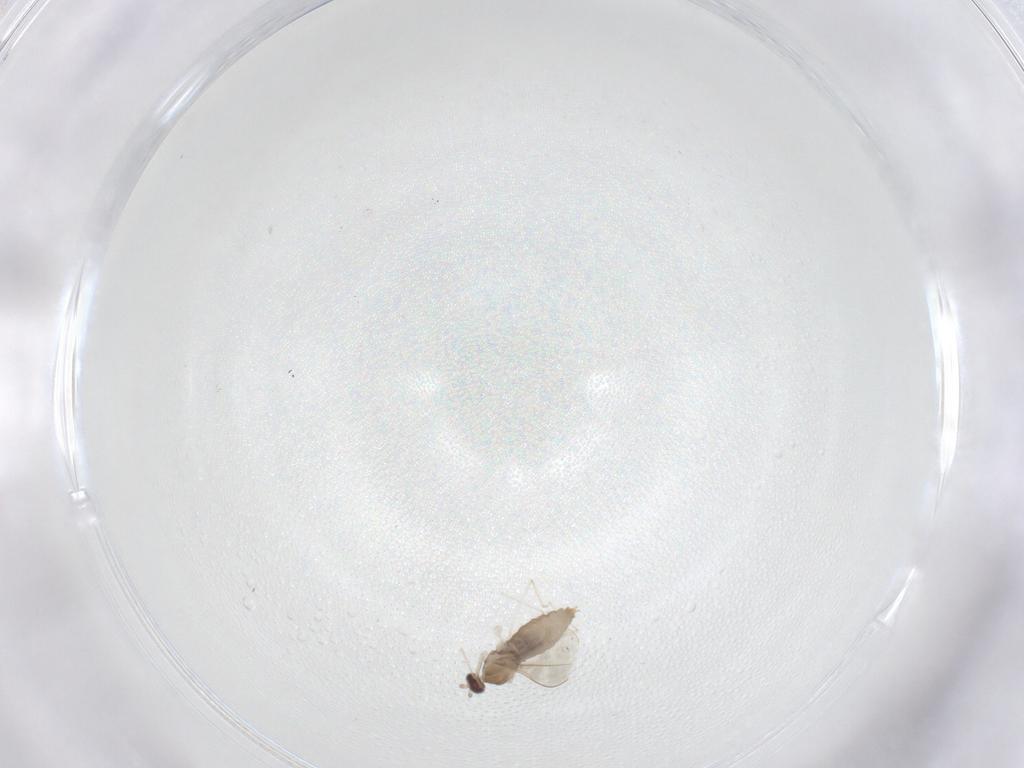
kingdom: Animalia
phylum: Arthropoda
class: Insecta
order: Diptera
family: Cecidomyiidae
